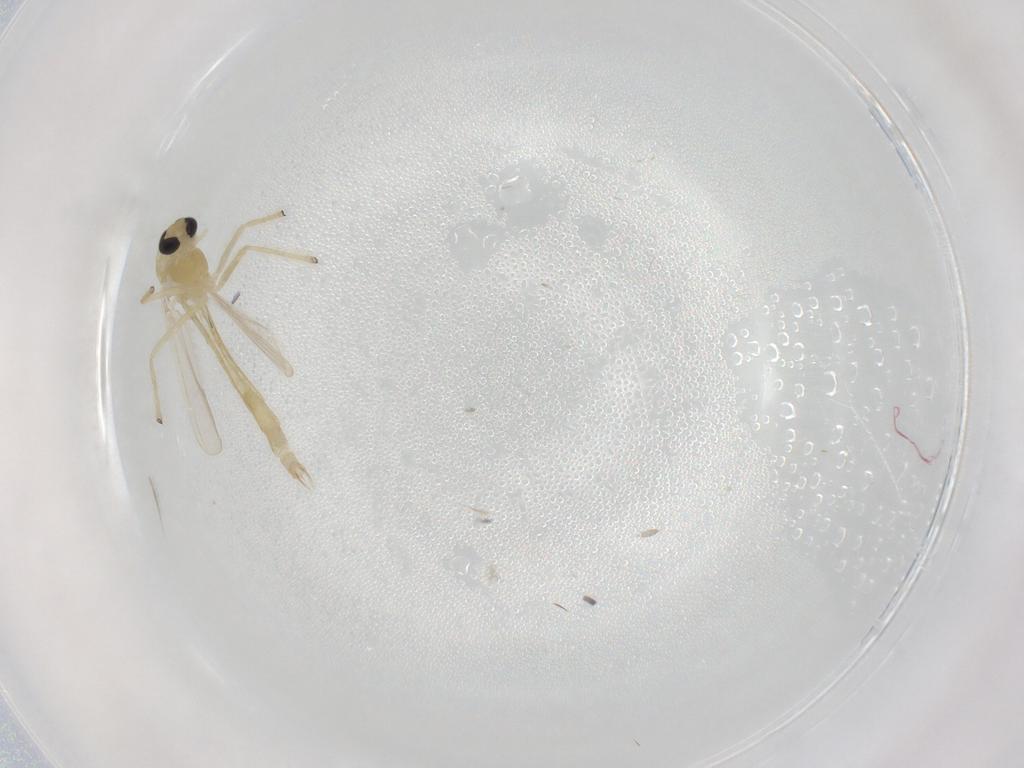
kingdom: Animalia
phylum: Arthropoda
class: Insecta
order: Diptera
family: Chironomidae
